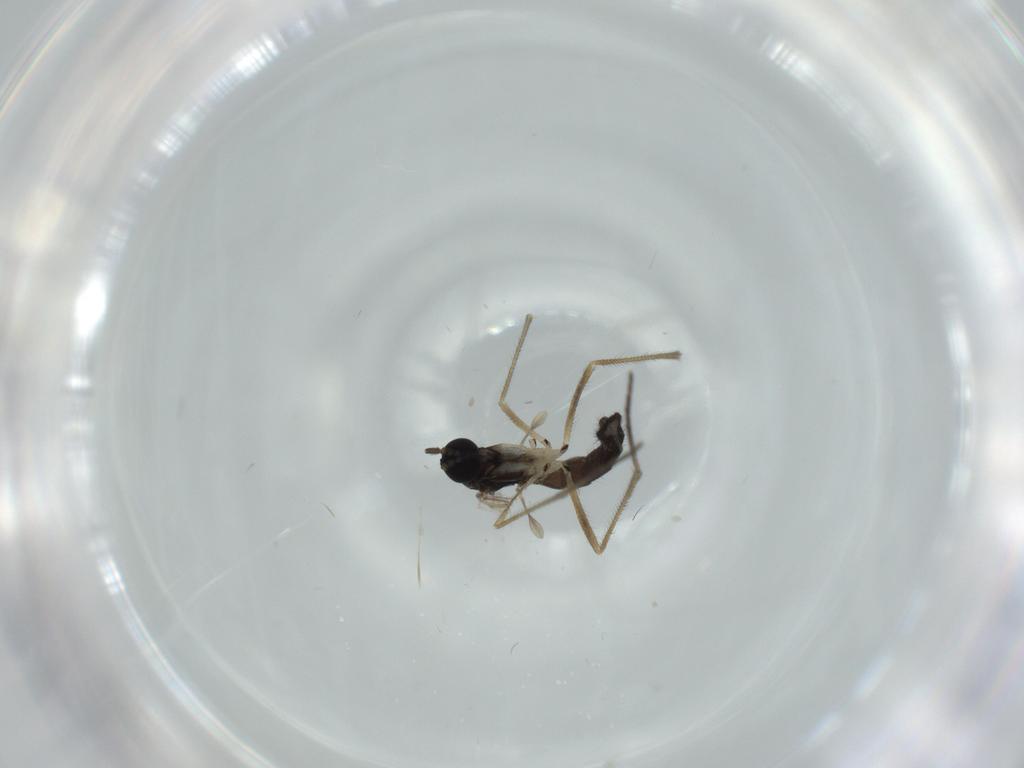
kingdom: Animalia
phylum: Arthropoda
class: Insecta
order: Diptera
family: Sciaridae
